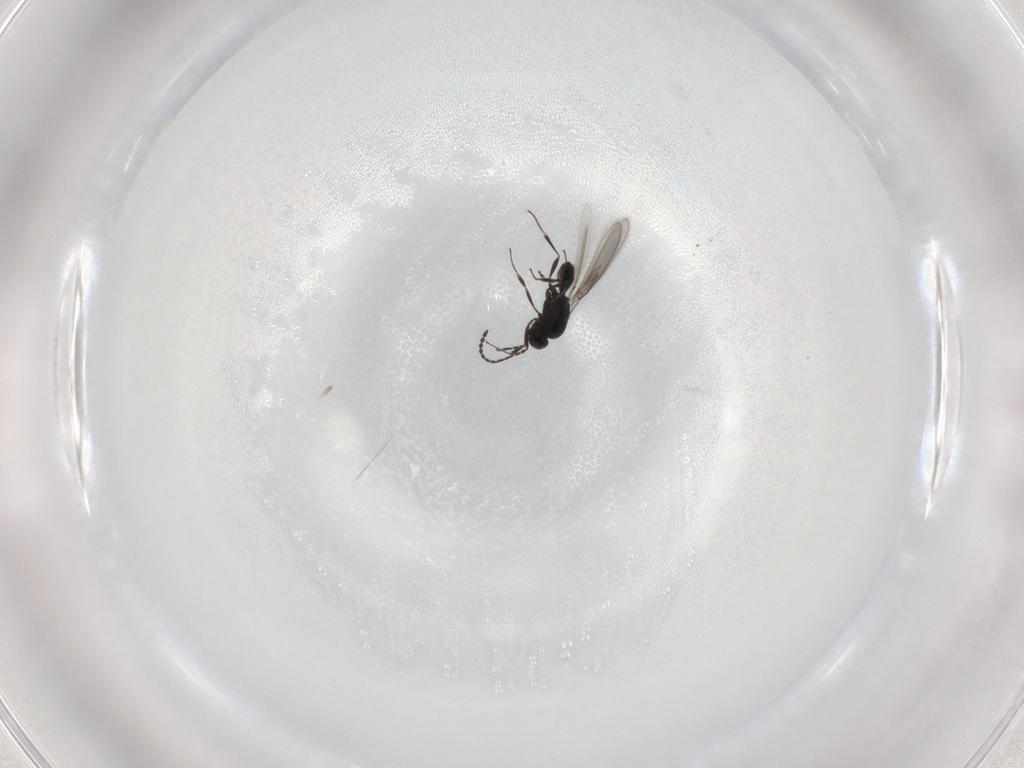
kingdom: Animalia
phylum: Arthropoda
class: Insecta
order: Hymenoptera
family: Scelionidae
